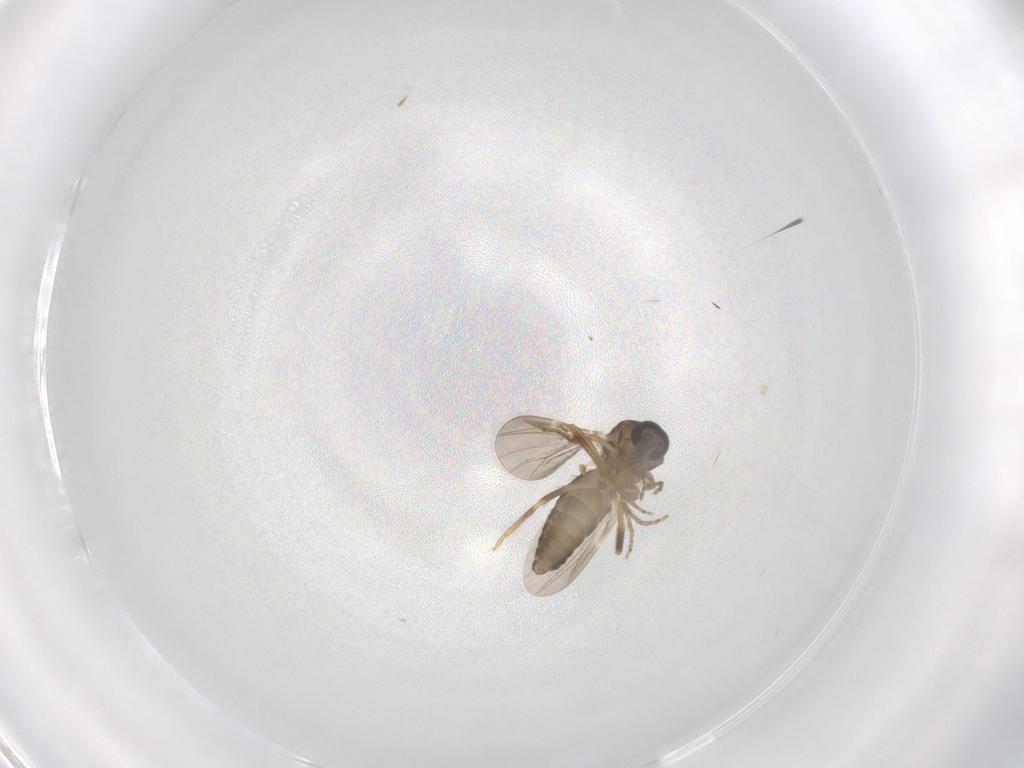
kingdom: Animalia
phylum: Arthropoda
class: Insecta
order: Diptera
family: Ceratopogonidae
